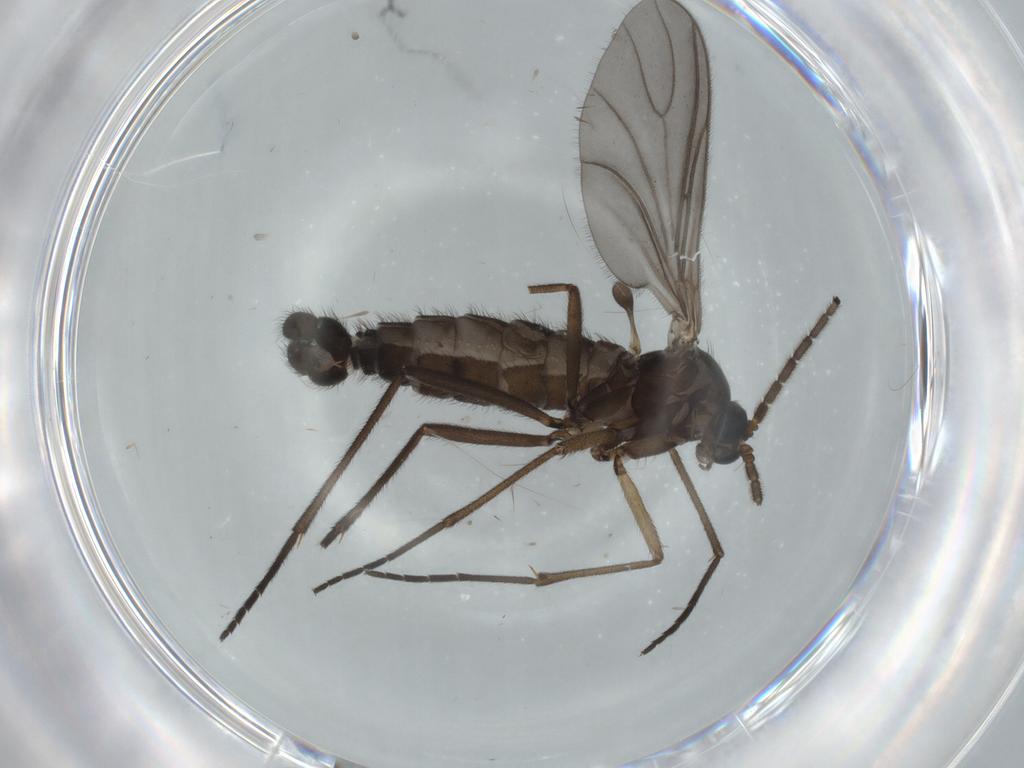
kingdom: Animalia
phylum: Arthropoda
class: Insecta
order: Diptera
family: Sciaridae
